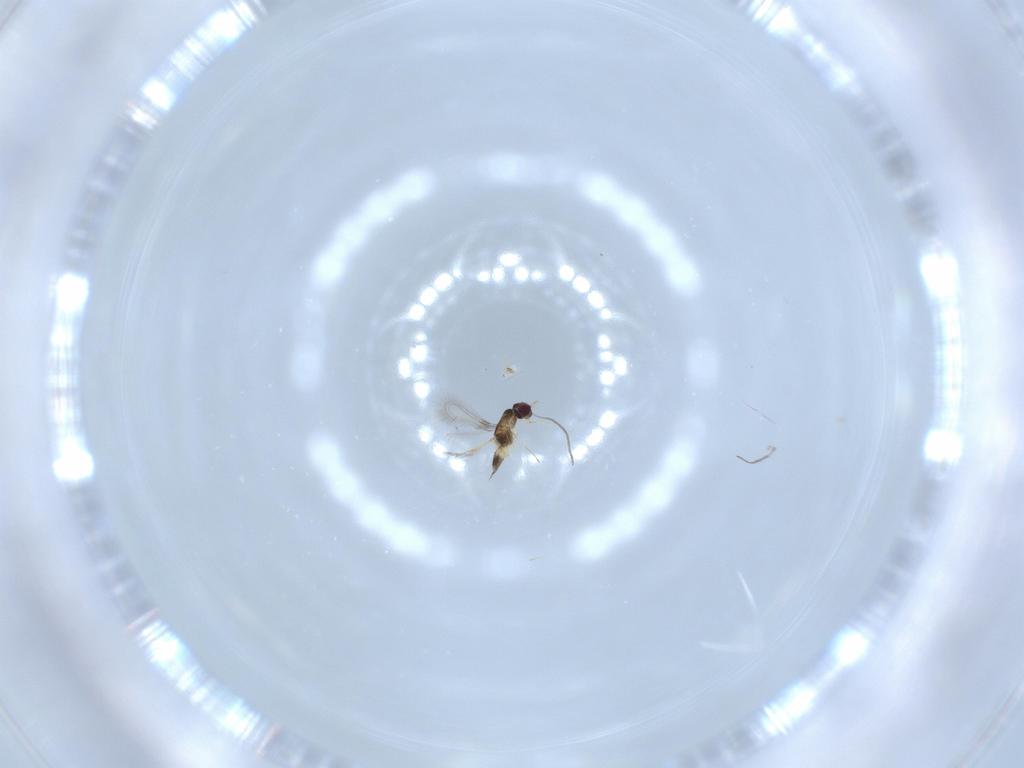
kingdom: Animalia
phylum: Arthropoda
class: Insecta
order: Hymenoptera
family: Mymaridae
